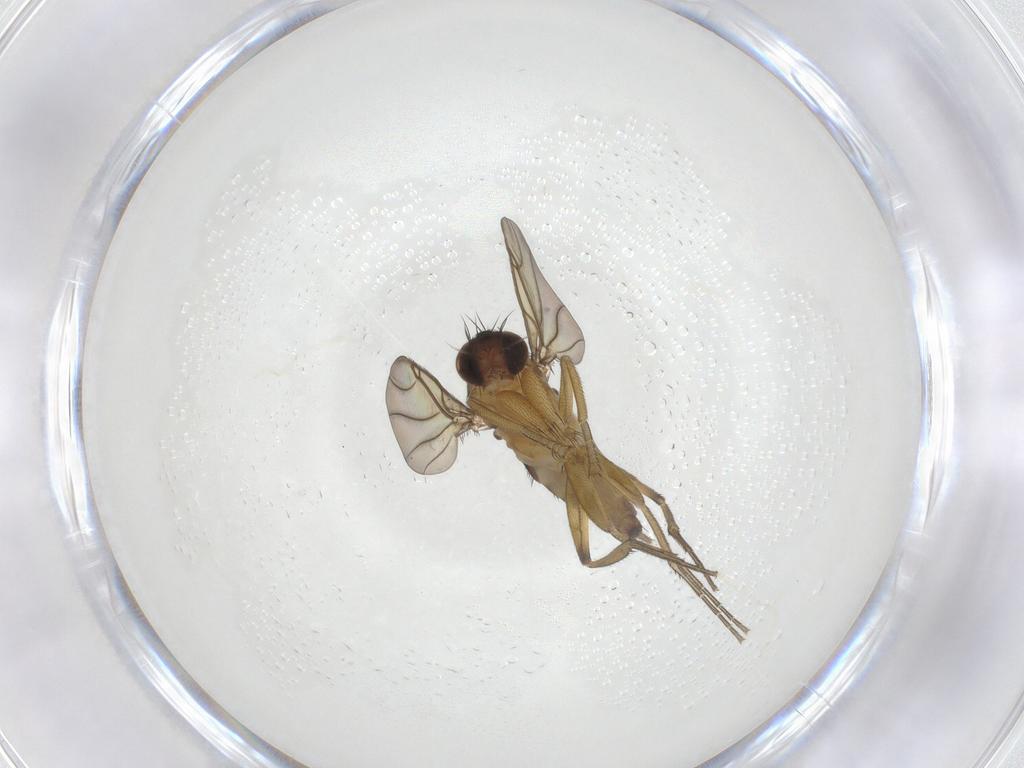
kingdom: Animalia
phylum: Arthropoda
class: Insecta
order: Diptera
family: Phoridae
